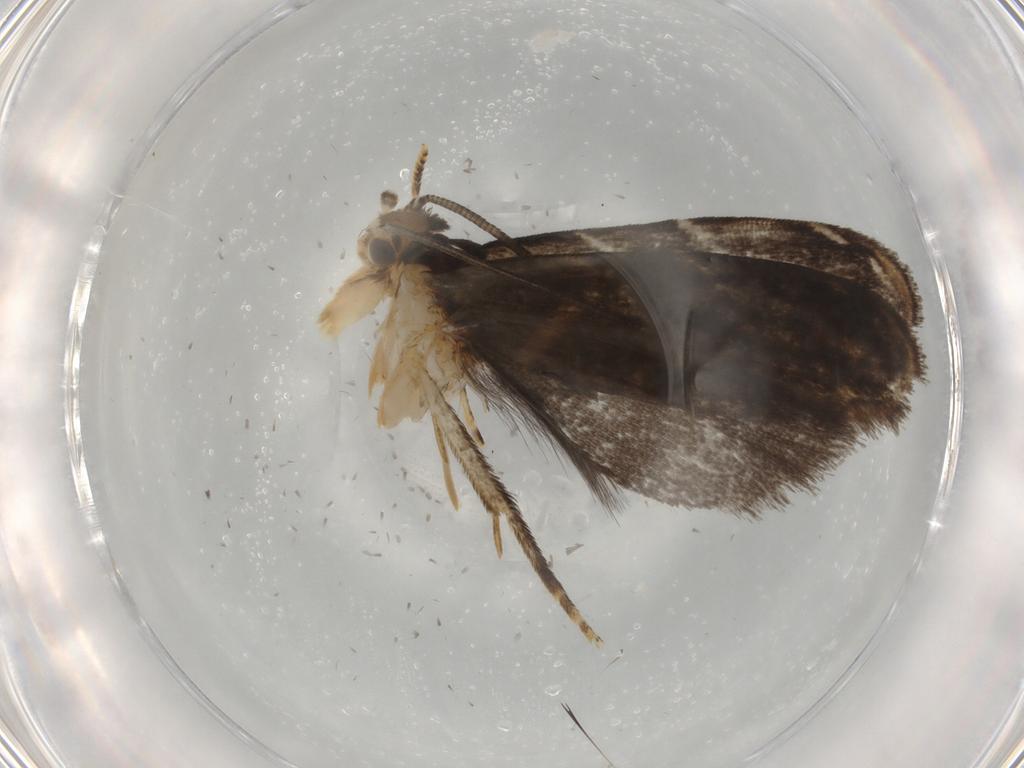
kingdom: Animalia
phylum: Arthropoda
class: Insecta
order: Lepidoptera
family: Dryadaulidae
